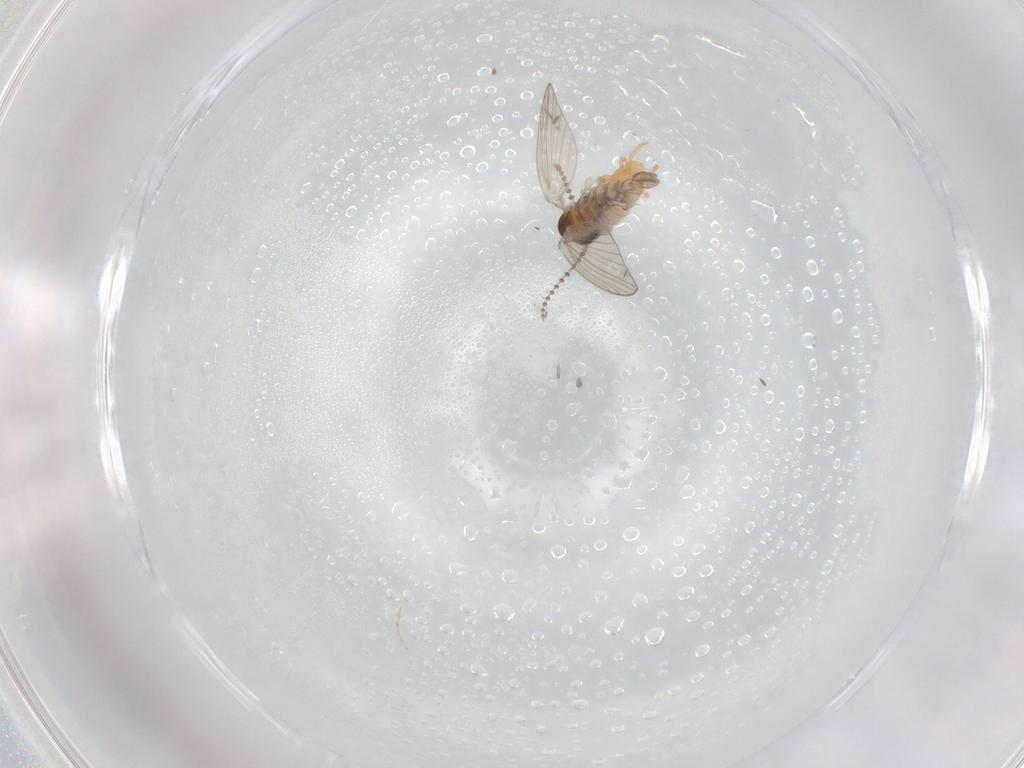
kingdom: Animalia
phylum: Arthropoda
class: Insecta
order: Diptera
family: Psychodidae
